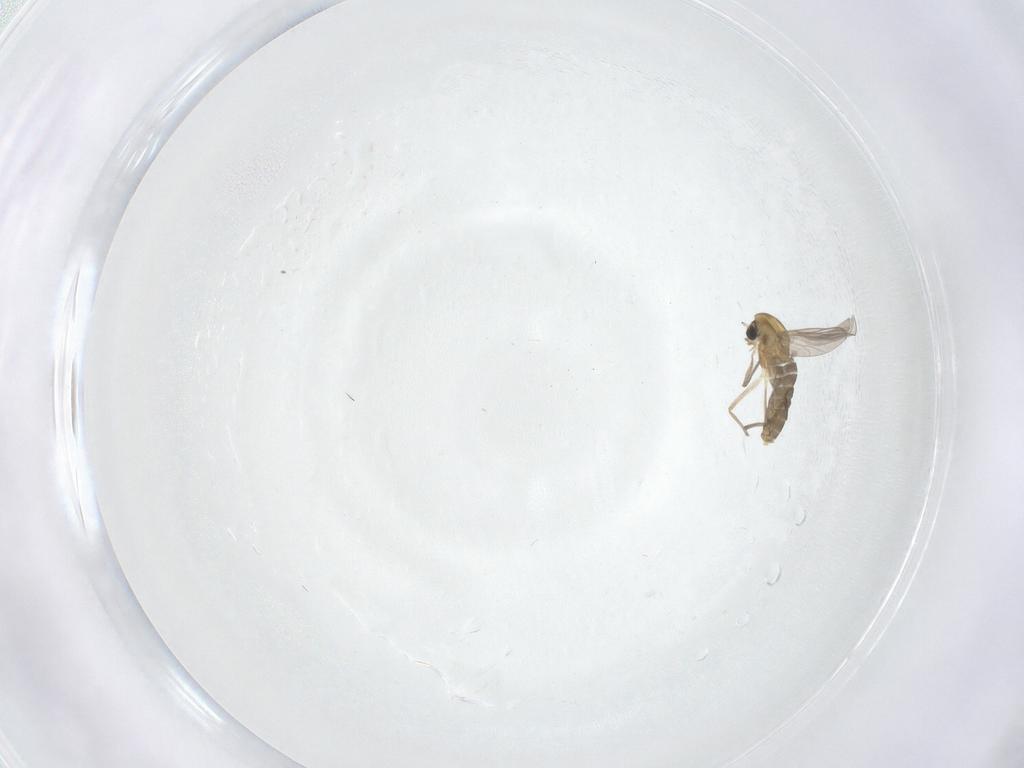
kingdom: Animalia
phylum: Arthropoda
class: Insecta
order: Diptera
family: Chironomidae
